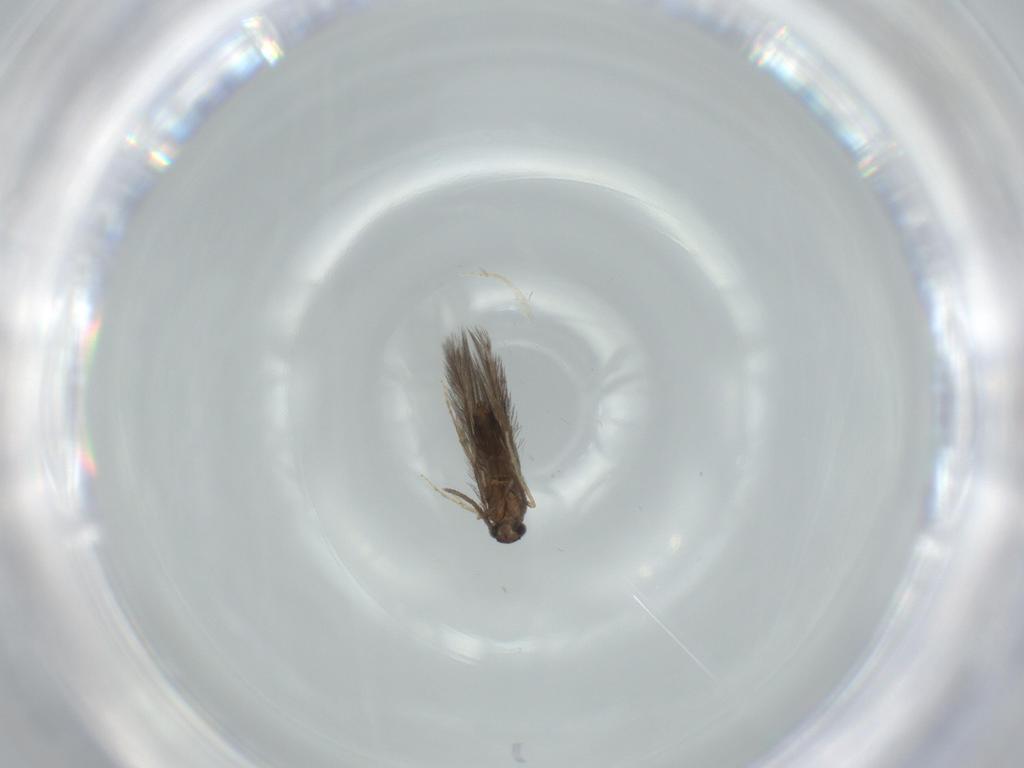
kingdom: Animalia
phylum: Arthropoda
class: Insecta
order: Trichoptera
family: Hydroptilidae
